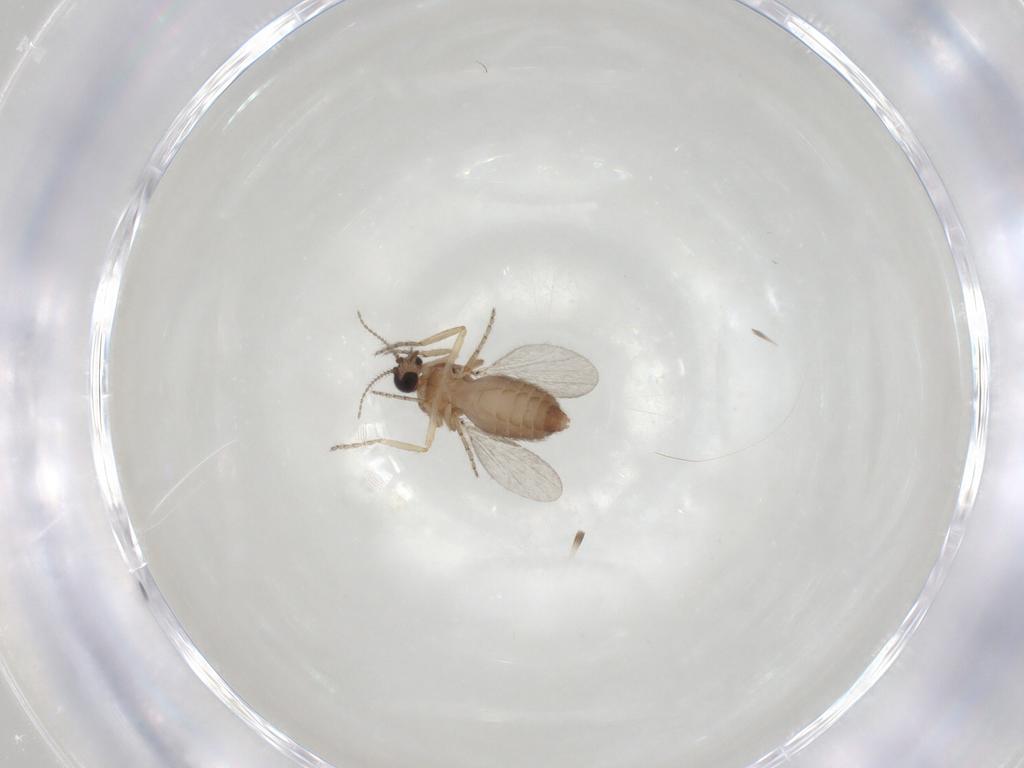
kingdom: Animalia
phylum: Arthropoda
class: Insecta
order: Diptera
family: Ceratopogonidae
